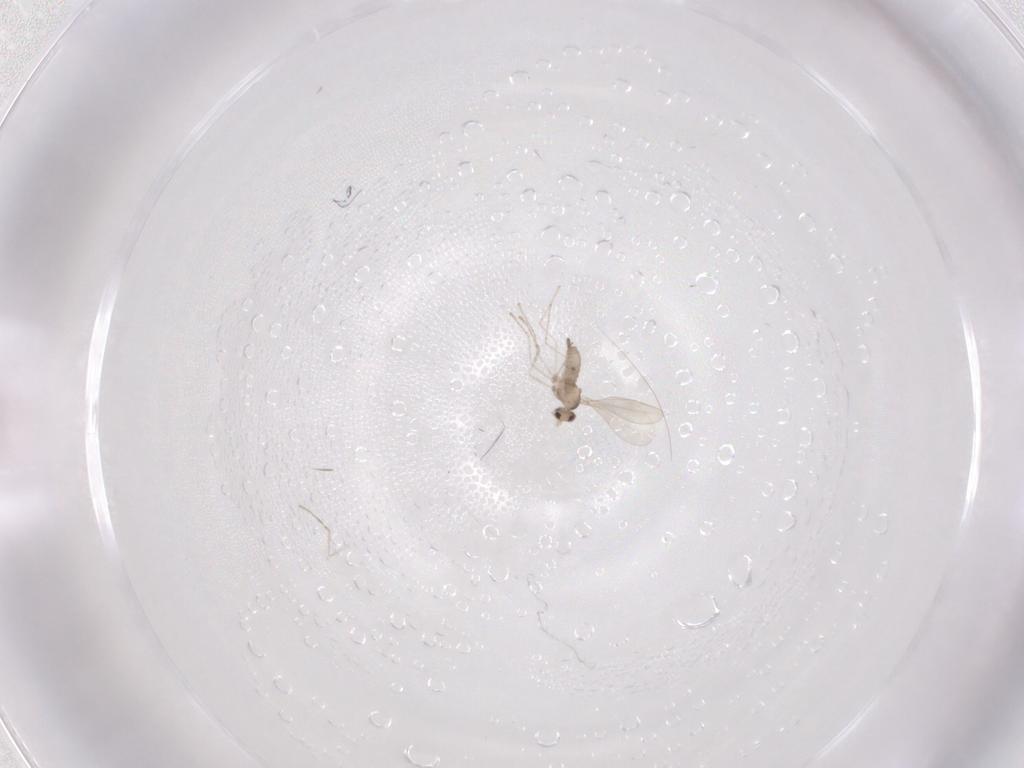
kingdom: Animalia
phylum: Arthropoda
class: Insecta
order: Diptera
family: Cecidomyiidae
